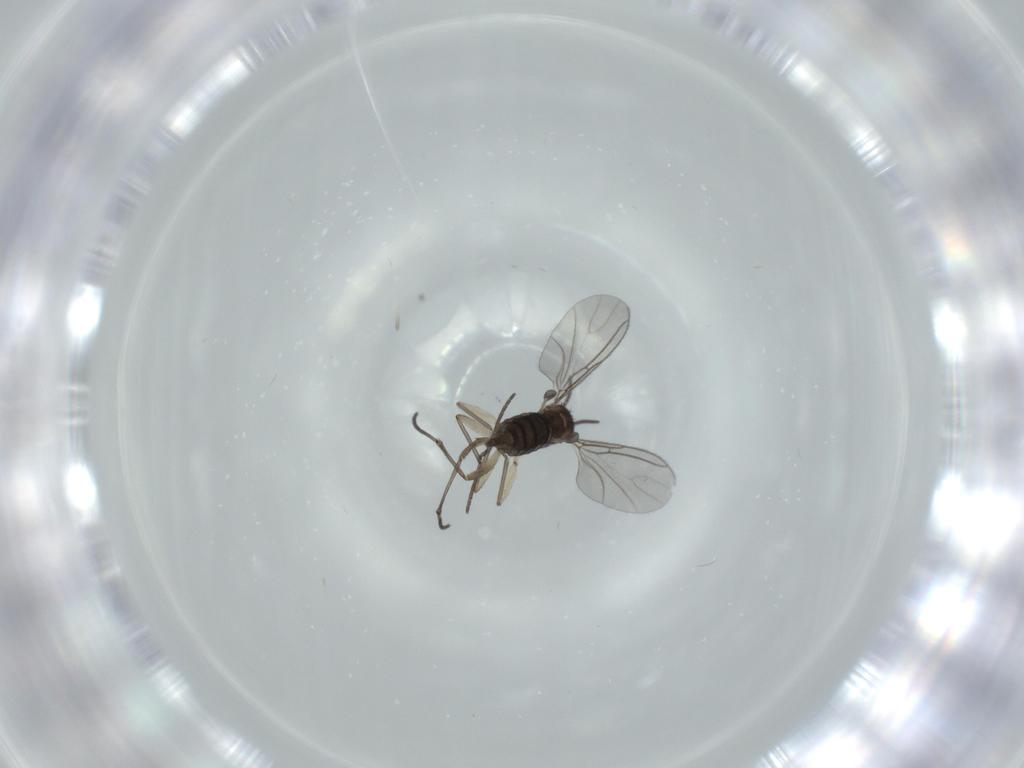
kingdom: Animalia
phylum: Arthropoda
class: Insecta
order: Diptera
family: Sciaridae
